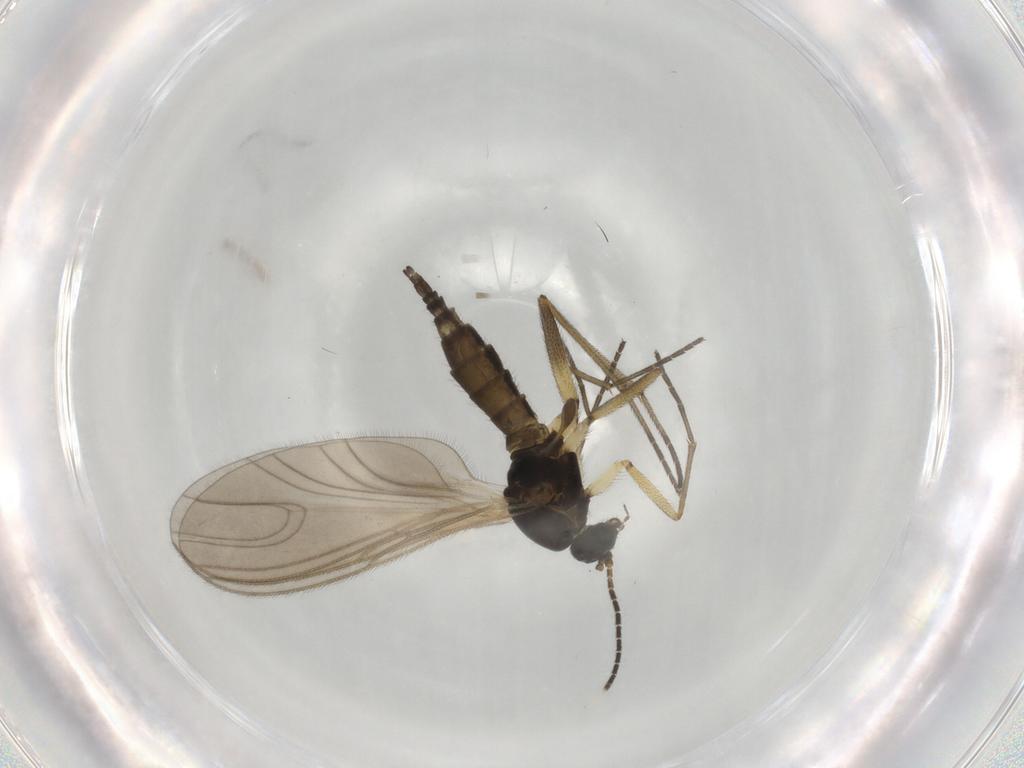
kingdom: Animalia
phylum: Arthropoda
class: Insecta
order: Diptera
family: Sciaridae
